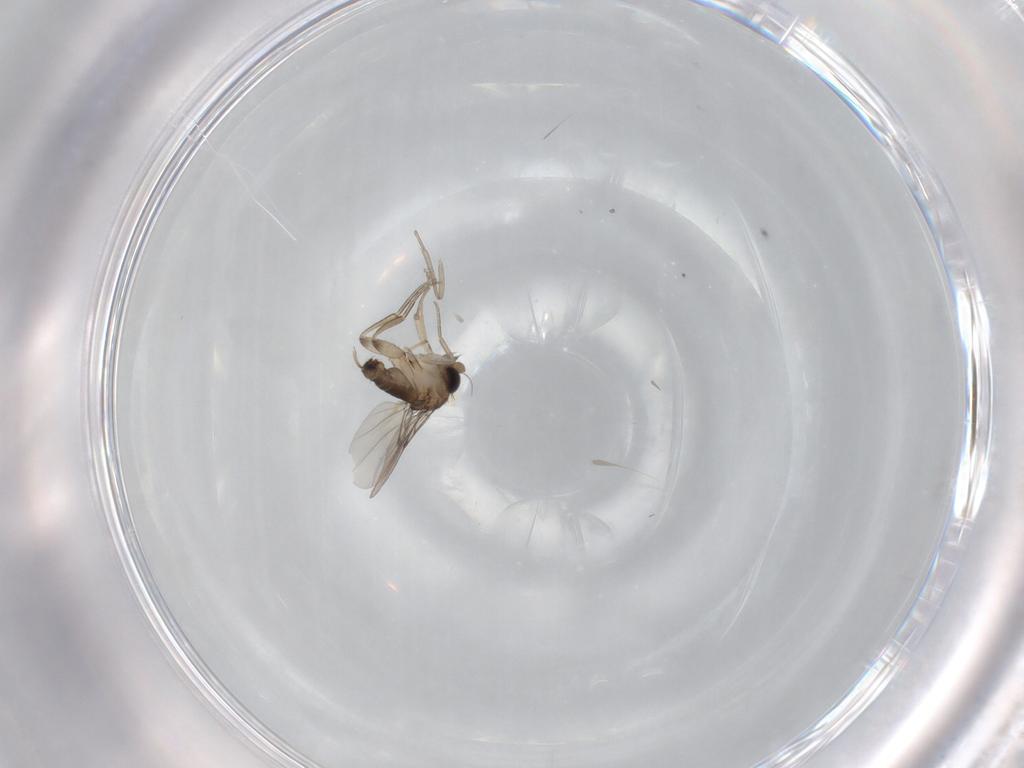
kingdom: Animalia
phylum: Arthropoda
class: Insecta
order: Diptera
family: Psychodidae
